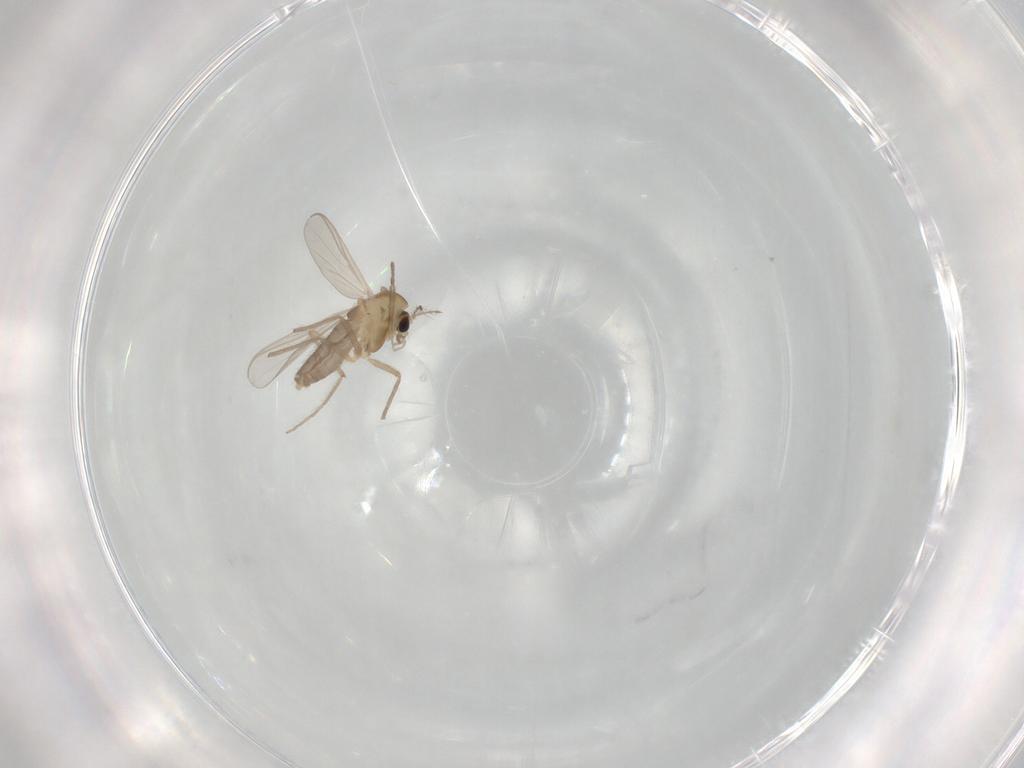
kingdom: Animalia
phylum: Arthropoda
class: Insecta
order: Diptera
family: Chironomidae
